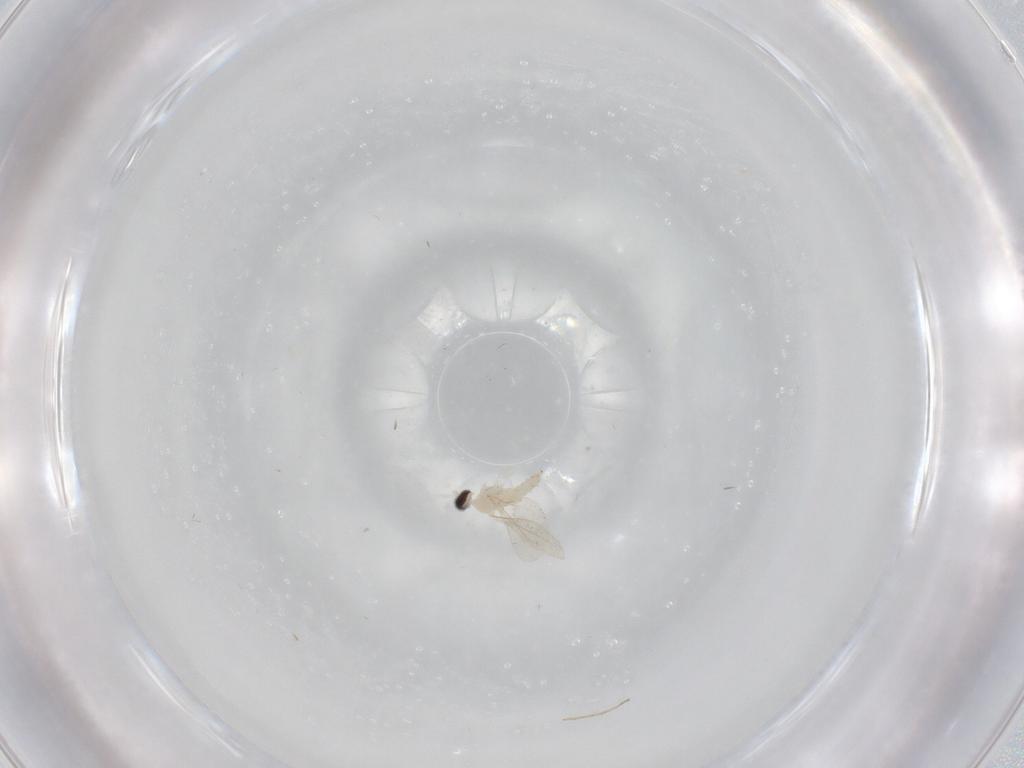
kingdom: Animalia
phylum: Arthropoda
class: Insecta
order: Diptera
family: Cecidomyiidae
